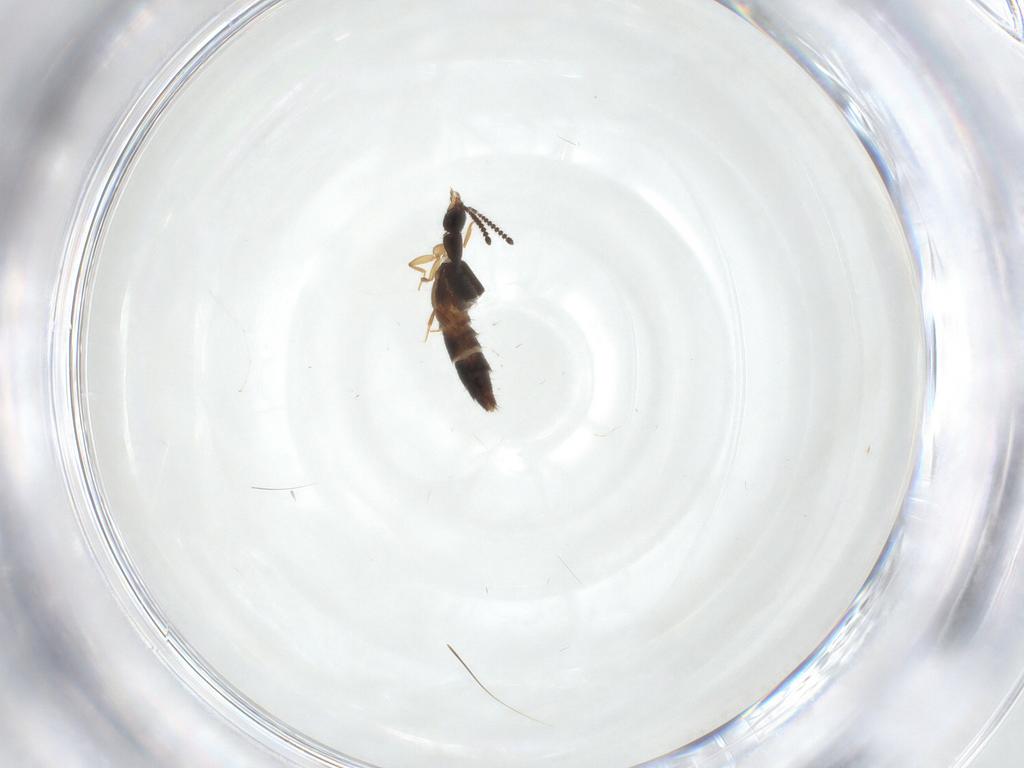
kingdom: Animalia
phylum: Arthropoda
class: Insecta
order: Coleoptera
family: Staphylinidae
